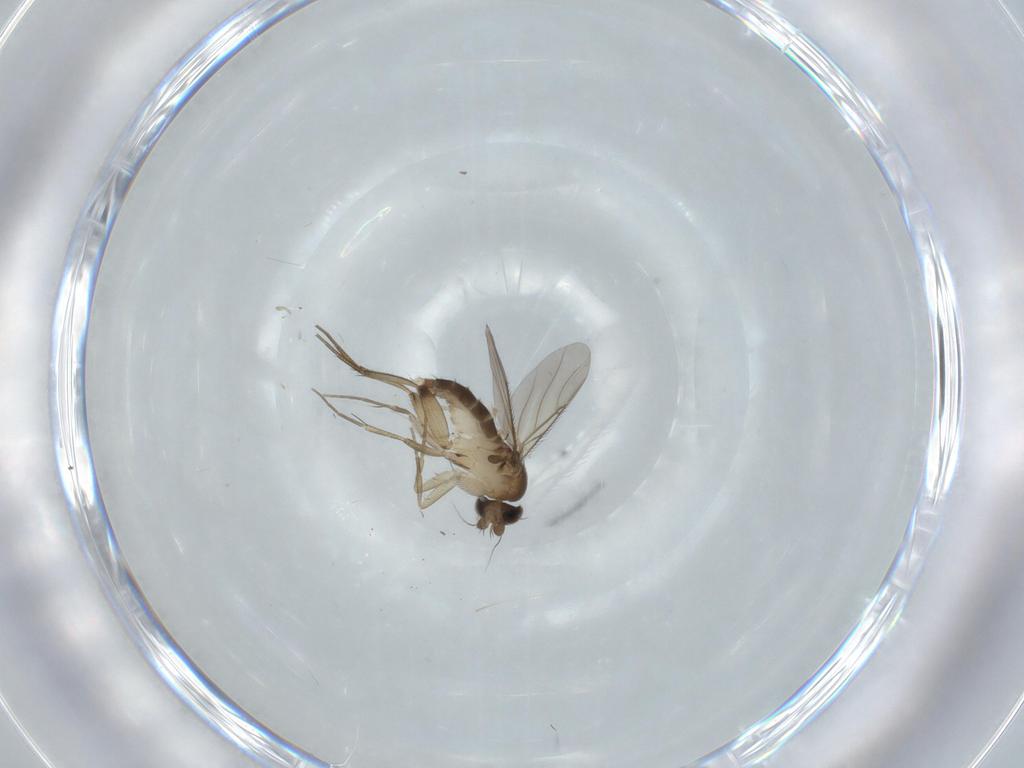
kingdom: Animalia
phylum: Arthropoda
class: Insecta
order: Diptera
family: Phoridae
